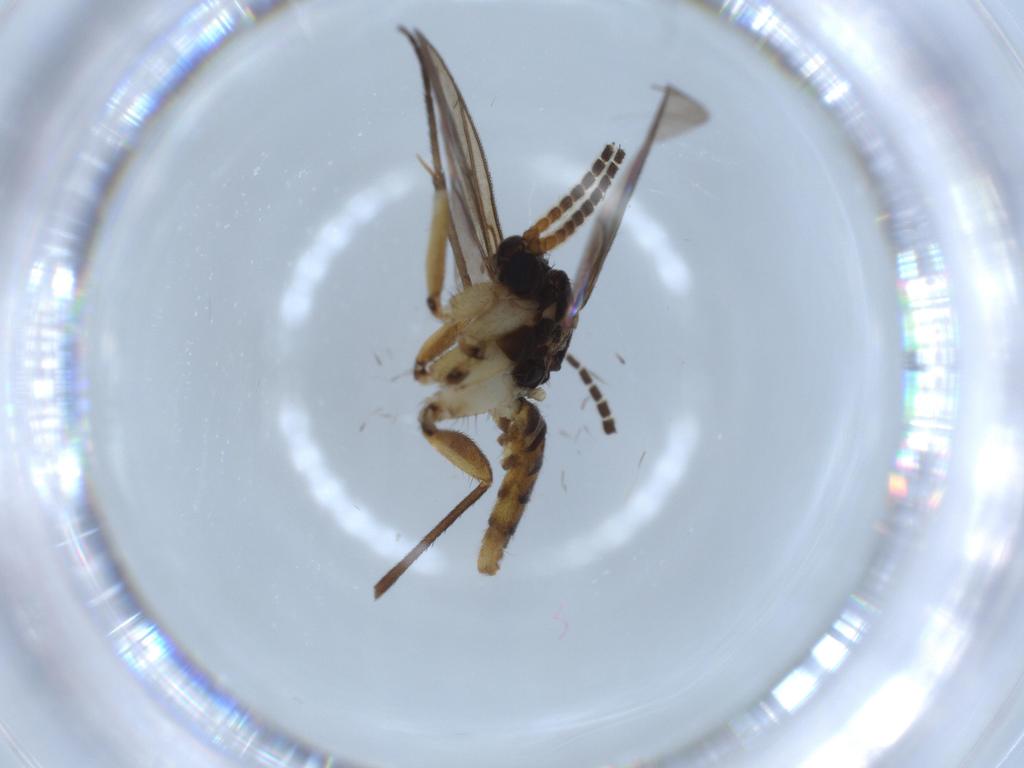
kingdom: Animalia
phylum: Arthropoda
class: Insecta
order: Diptera
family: Mycetophilidae
